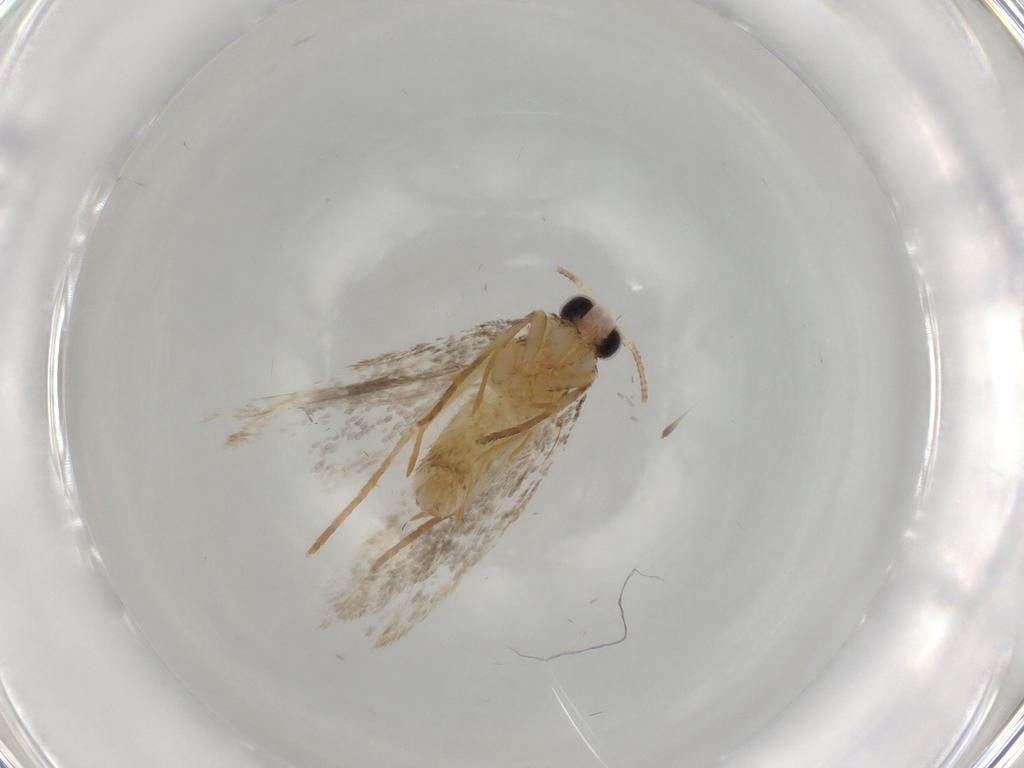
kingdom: Animalia
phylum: Arthropoda
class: Insecta
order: Lepidoptera
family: Tineidae
